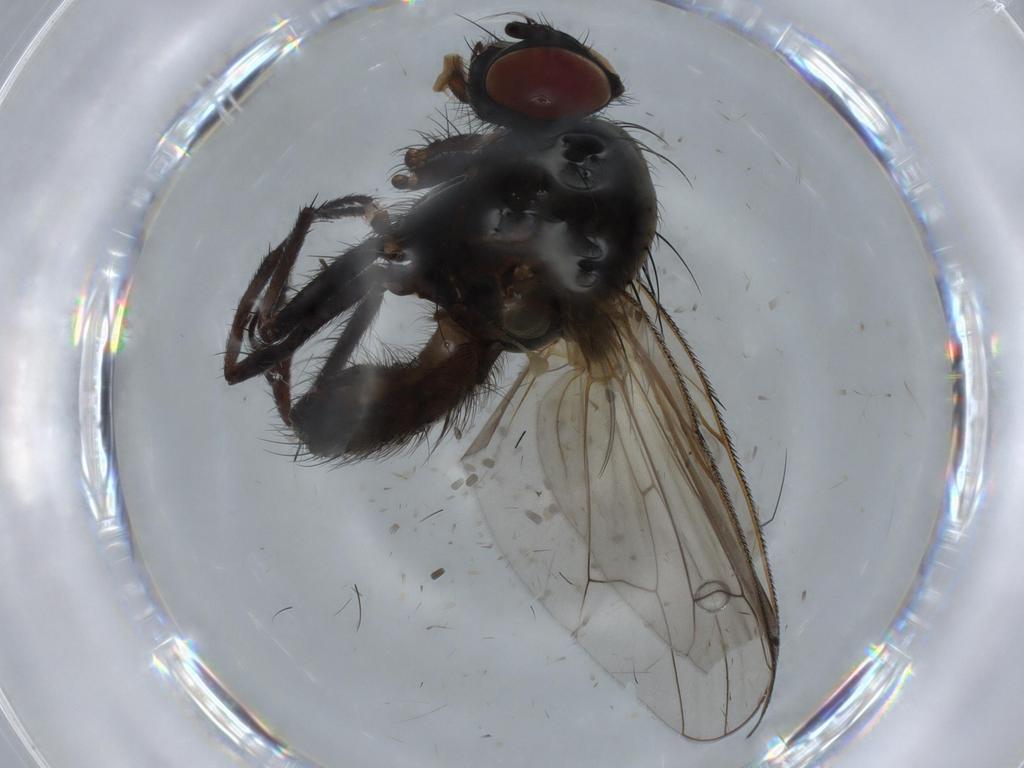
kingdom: Animalia
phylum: Arthropoda
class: Insecta
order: Diptera
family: Anthomyiidae
